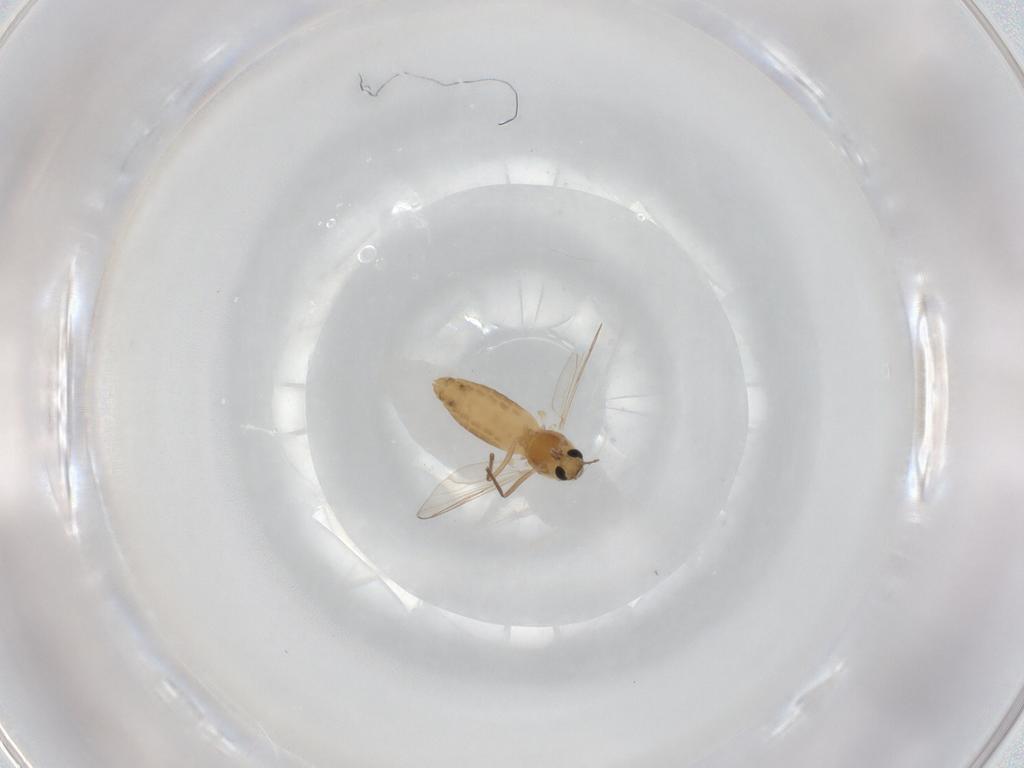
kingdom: Animalia
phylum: Arthropoda
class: Insecta
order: Diptera
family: Chironomidae
